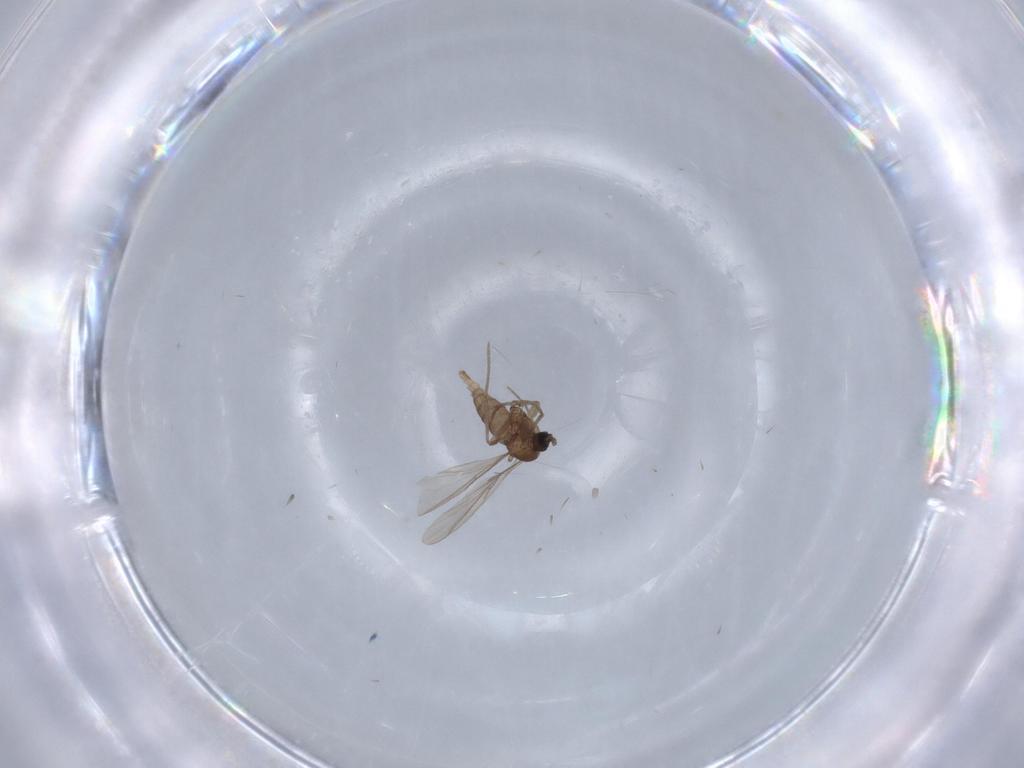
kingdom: Animalia
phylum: Arthropoda
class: Insecta
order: Diptera
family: Sciaridae
